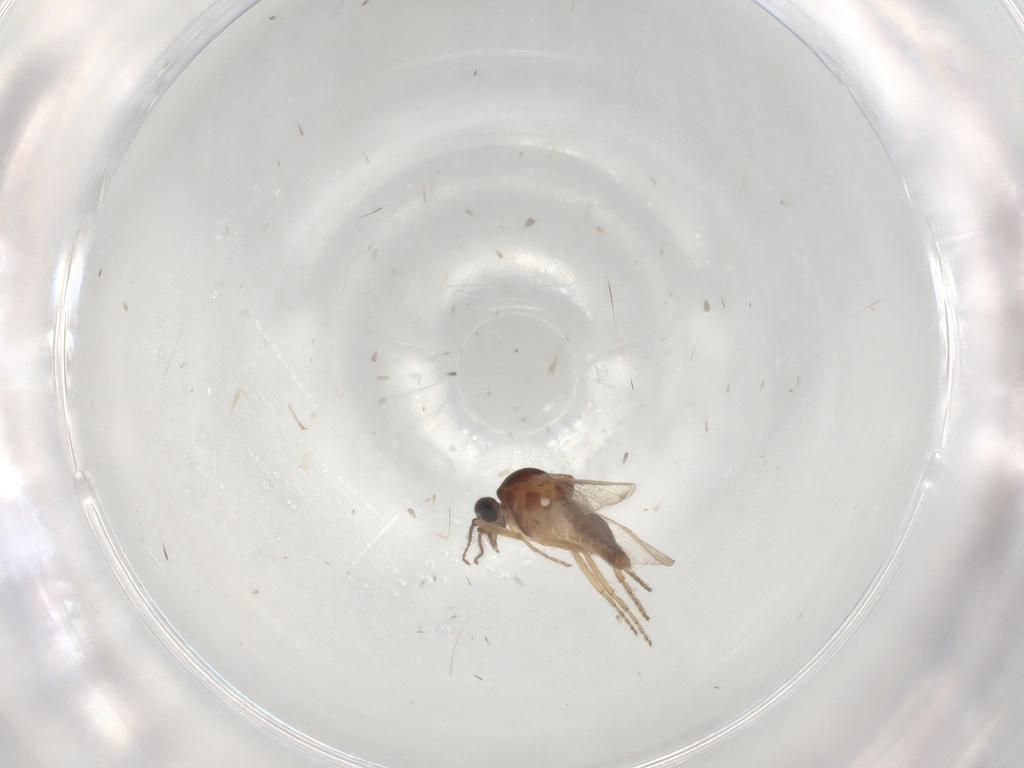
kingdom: Animalia
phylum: Arthropoda
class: Insecta
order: Diptera
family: Ceratopogonidae
